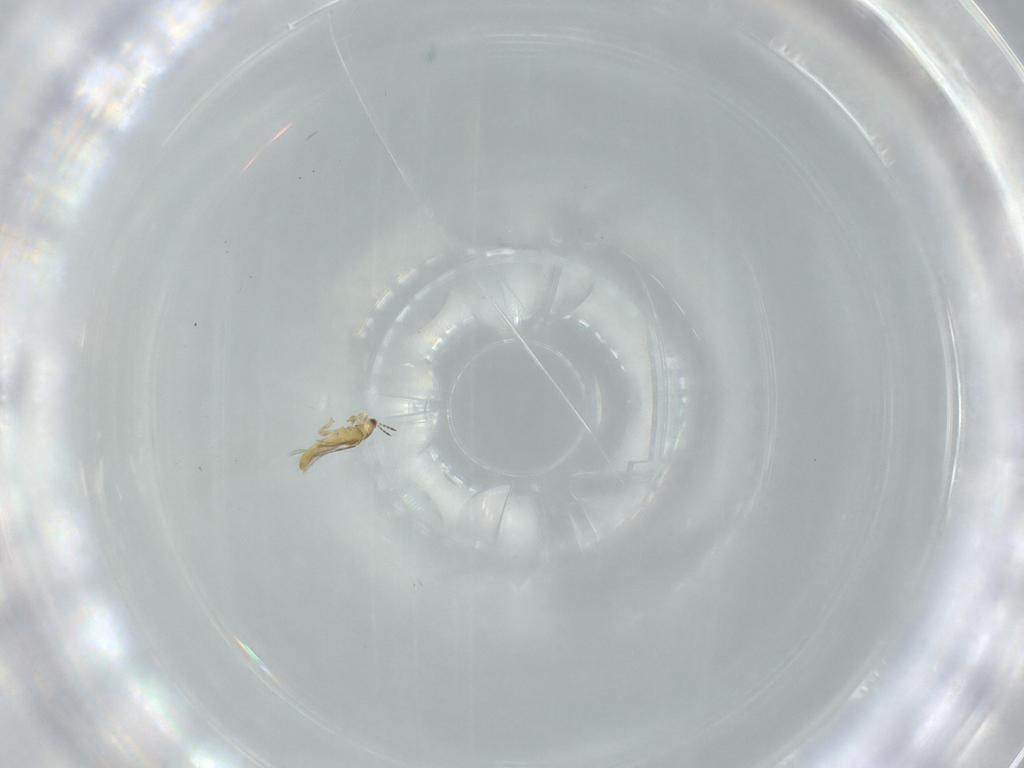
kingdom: Animalia
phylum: Arthropoda
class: Insecta
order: Thysanoptera
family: Thripidae
